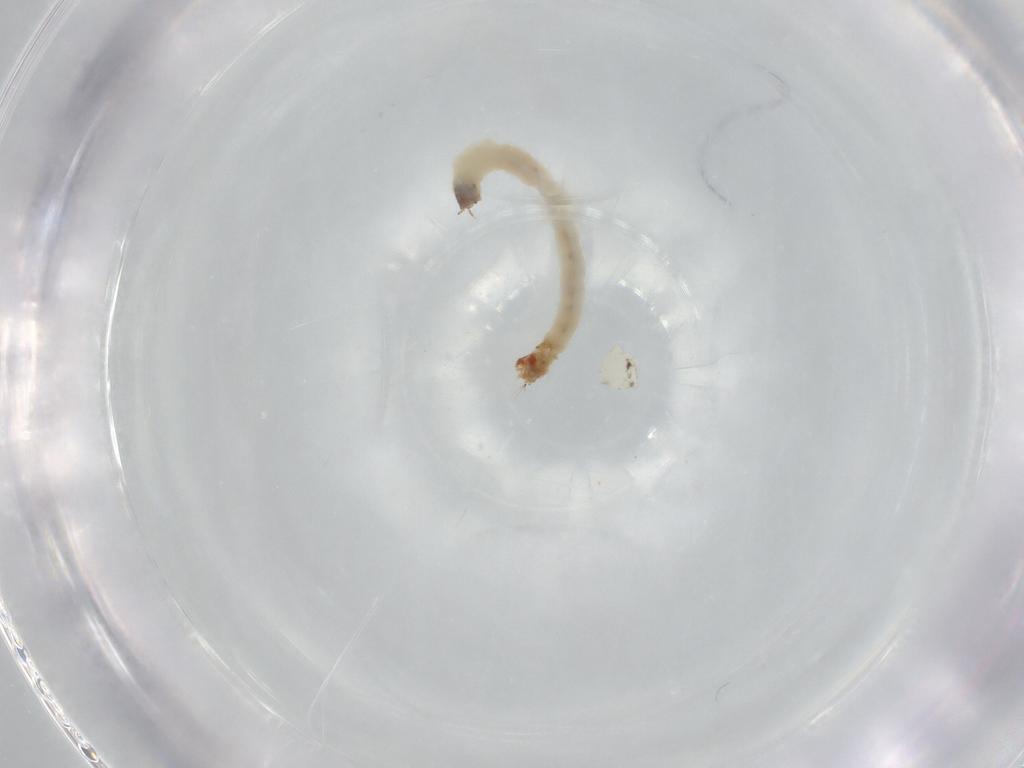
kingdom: Animalia
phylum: Arthropoda
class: Insecta
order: Diptera
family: Chironomidae
